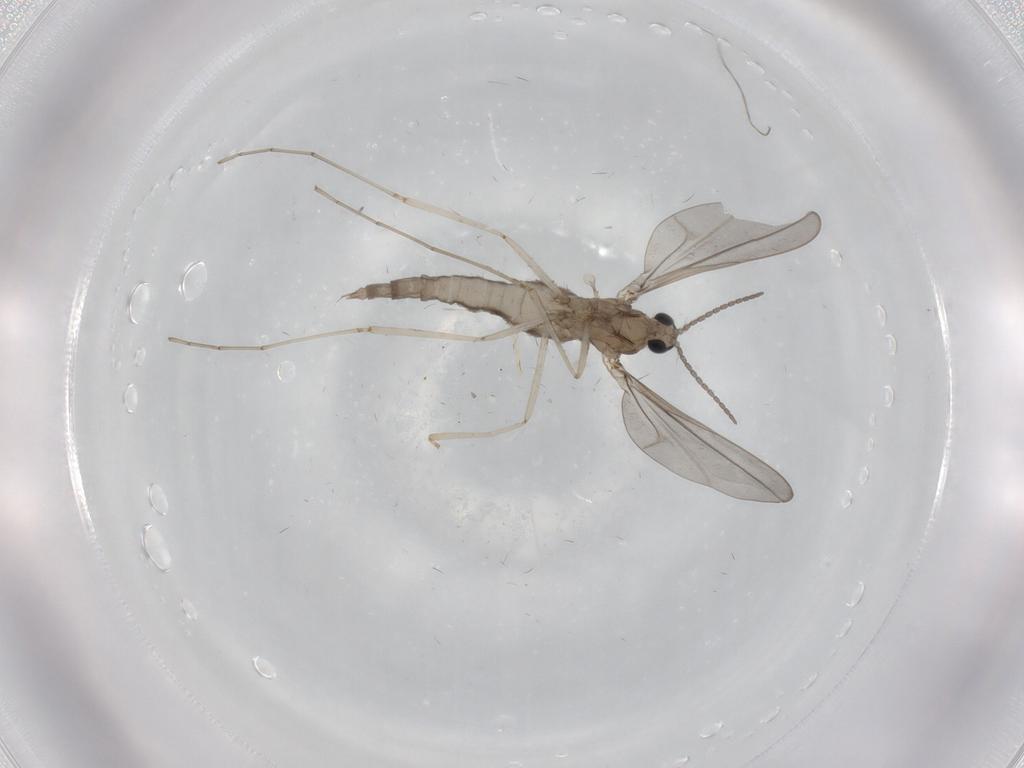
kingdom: Animalia
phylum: Arthropoda
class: Insecta
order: Diptera
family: Cecidomyiidae
